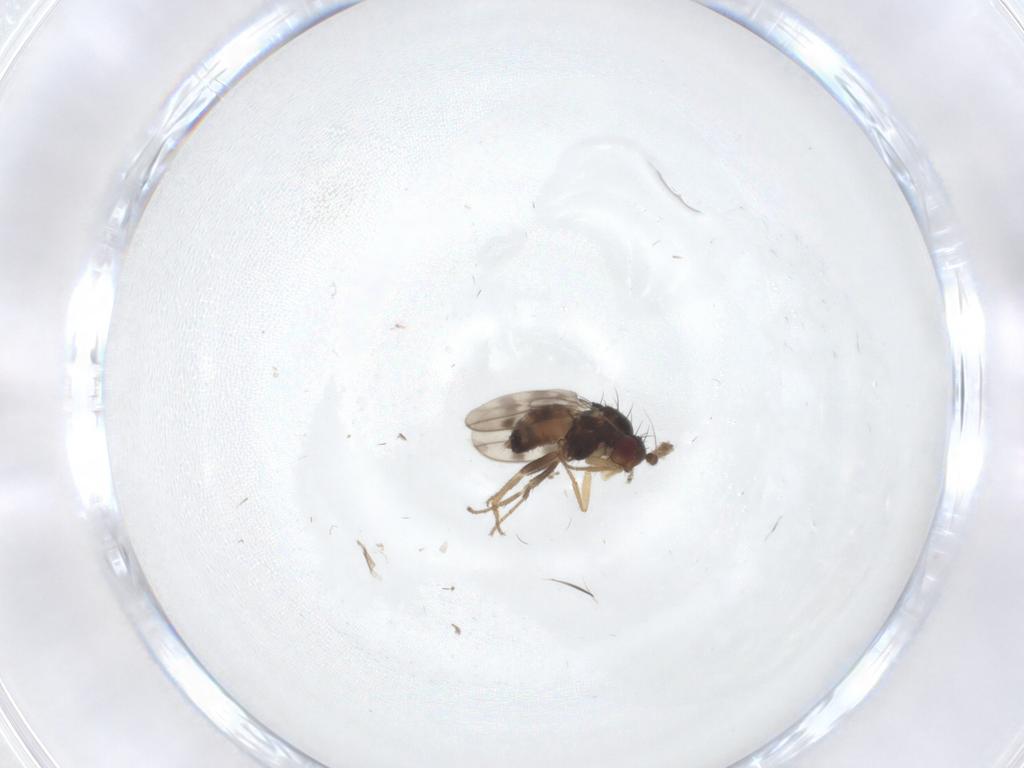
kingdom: Animalia
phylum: Arthropoda
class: Insecta
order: Diptera
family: Sphaeroceridae
